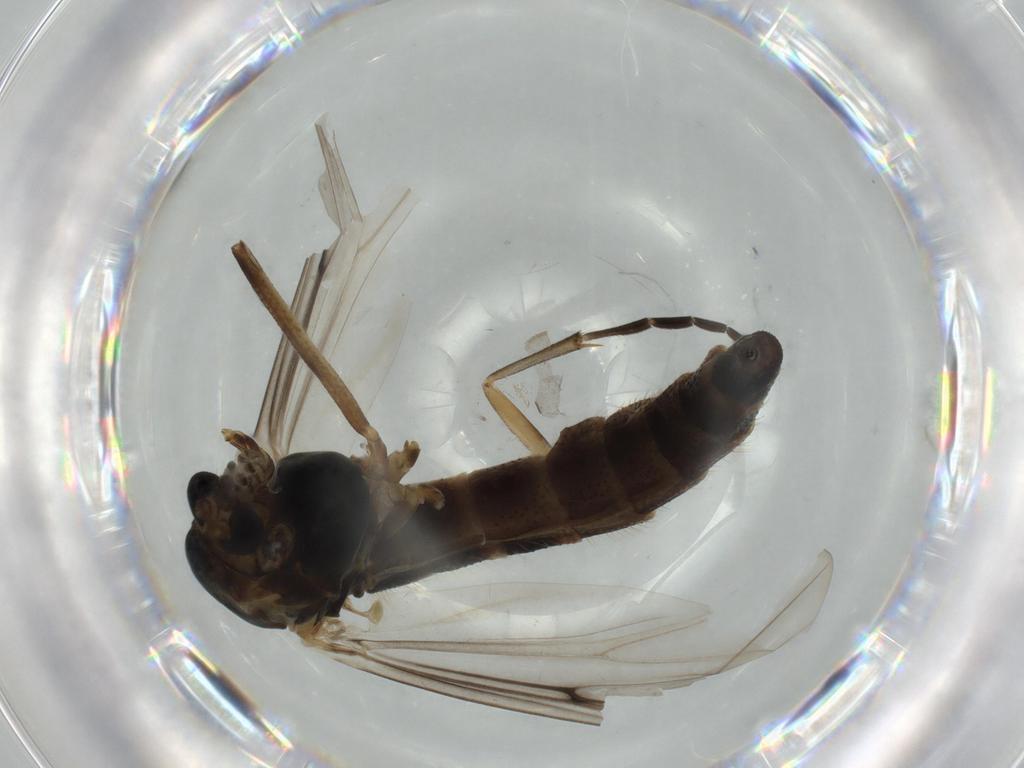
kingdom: Animalia
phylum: Arthropoda
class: Insecta
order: Diptera
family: Chironomidae
